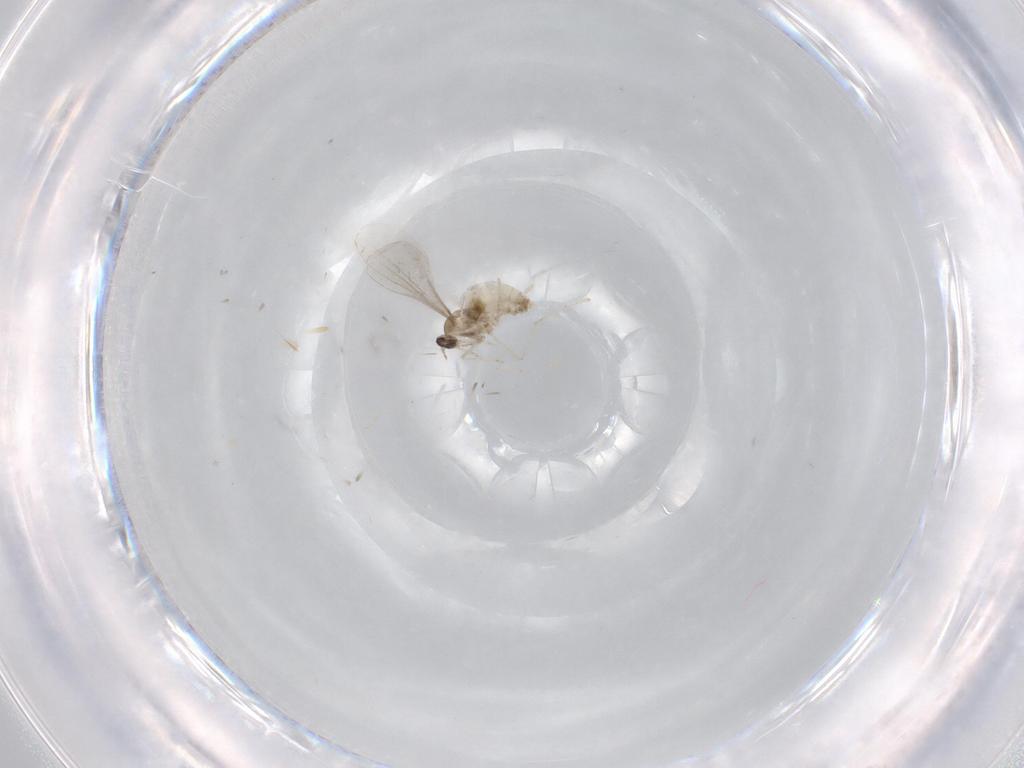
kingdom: Animalia
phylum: Arthropoda
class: Insecta
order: Diptera
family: Cecidomyiidae
